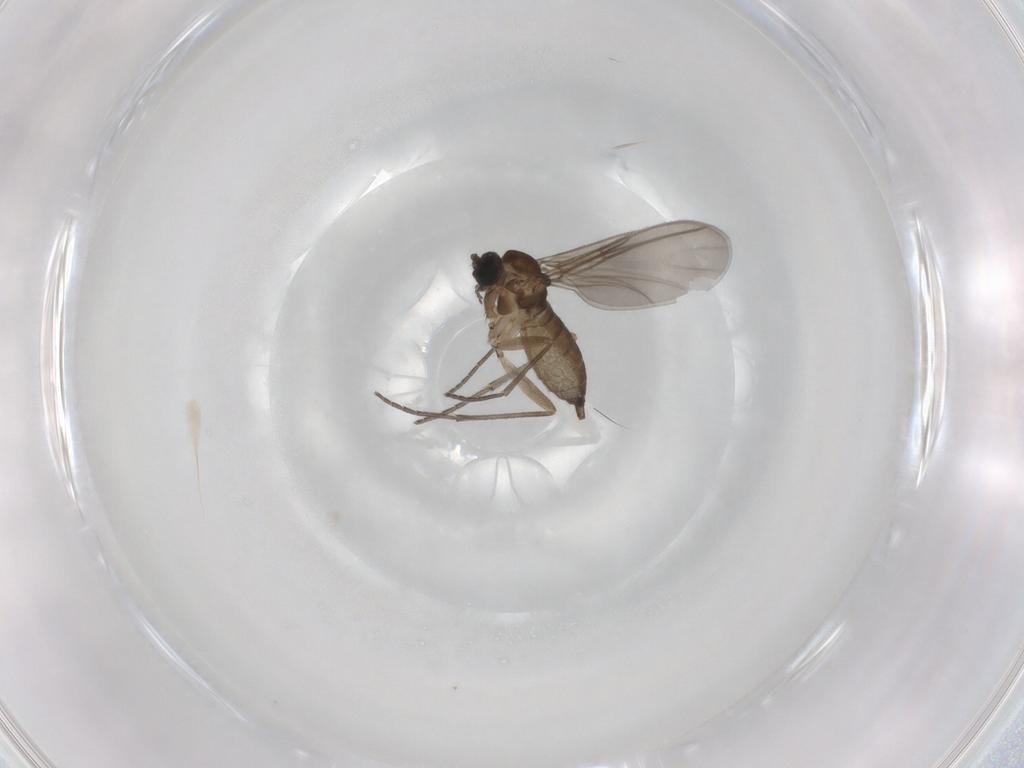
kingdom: Animalia
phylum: Arthropoda
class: Insecta
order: Diptera
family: Sciaridae
